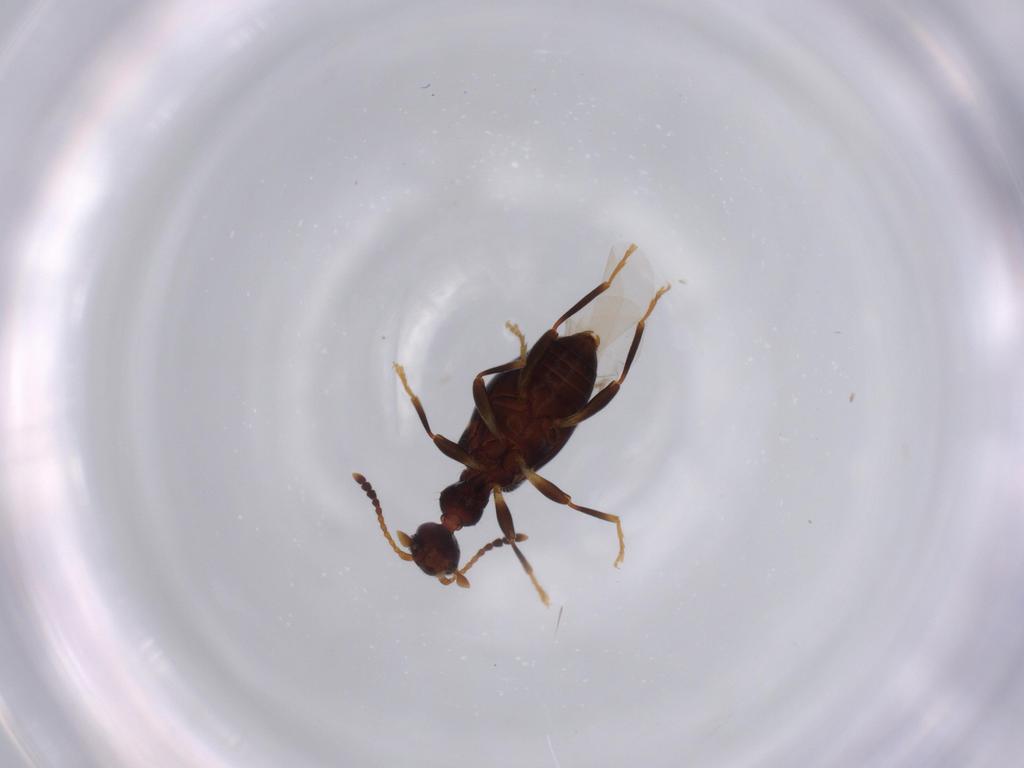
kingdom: Animalia
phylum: Arthropoda
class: Insecta
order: Coleoptera
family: Anthicidae
